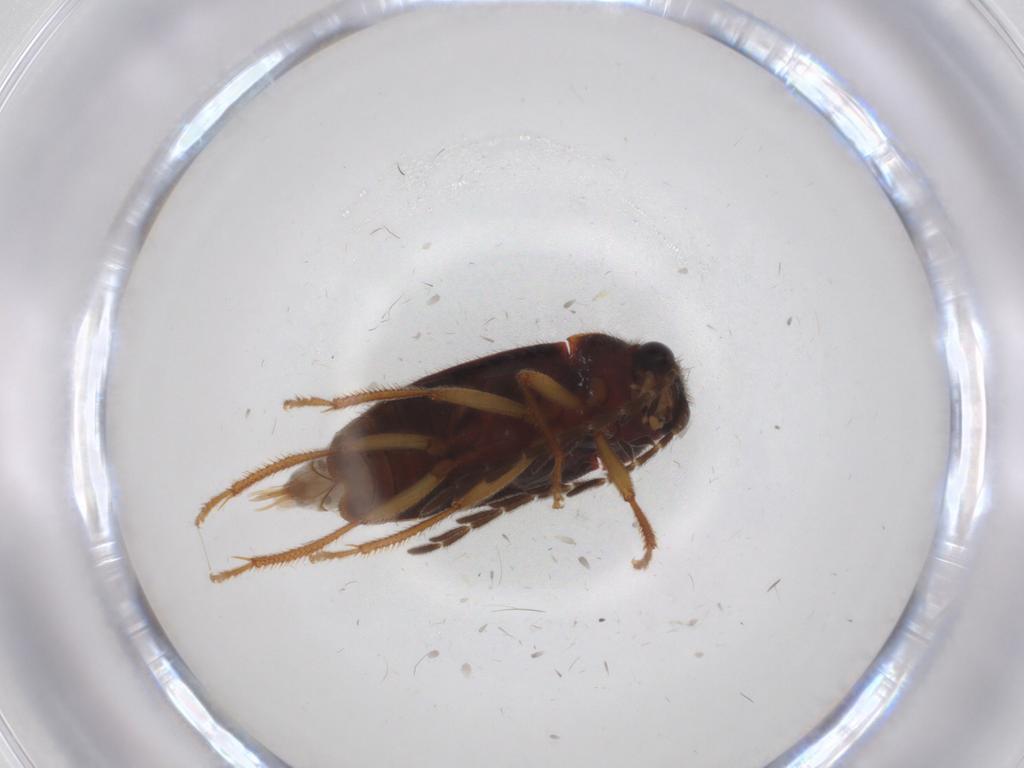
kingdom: Animalia
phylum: Arthropoda
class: Insecta
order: Coleoptera
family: Ptilodactylidae
